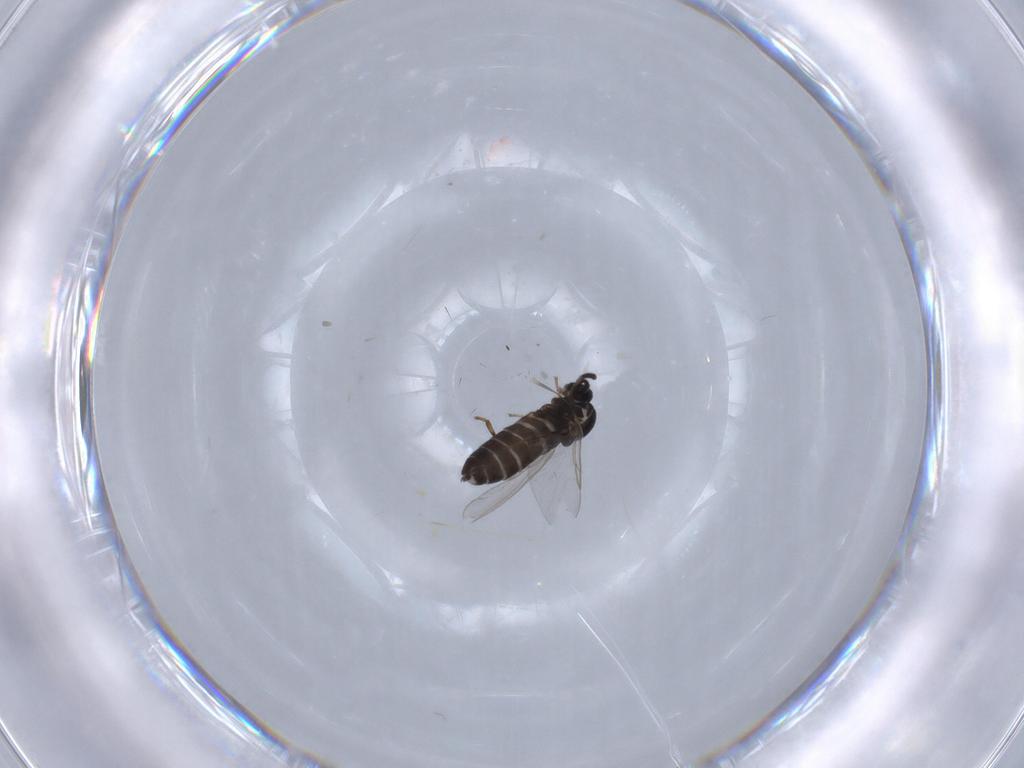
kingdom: Animalia
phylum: Arthropoda
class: Insecta
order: Diptera
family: Scatopsidae
